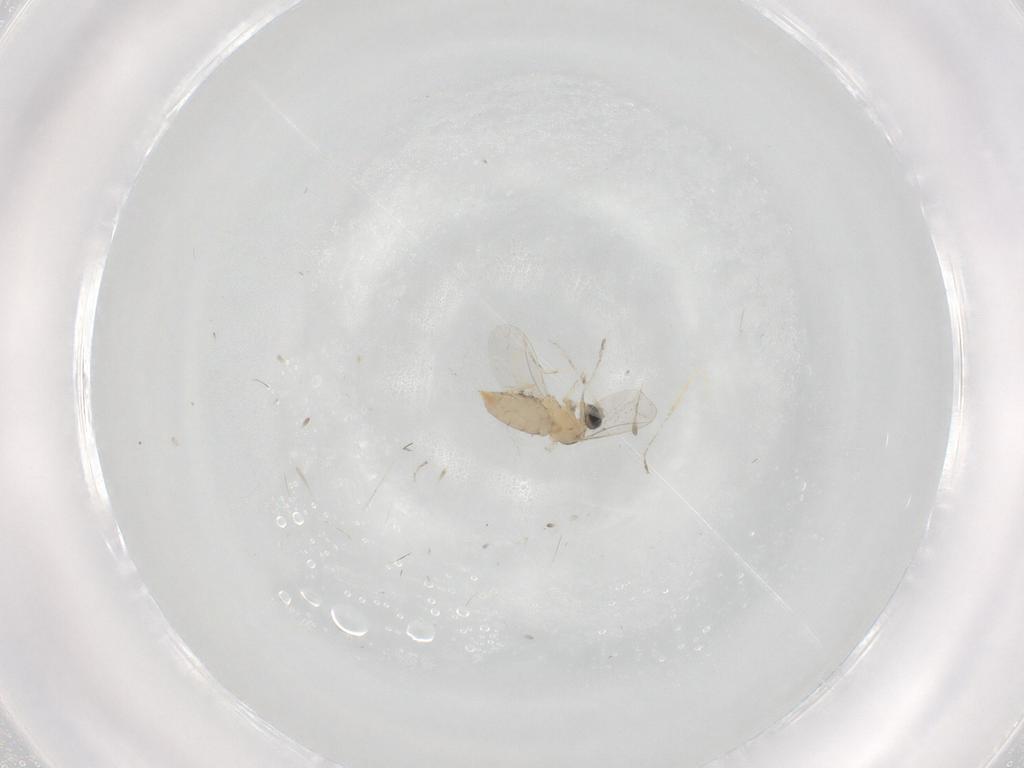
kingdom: Animalia
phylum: Arthropoda
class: Insecta
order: Diptera
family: Cecidomyiidae
